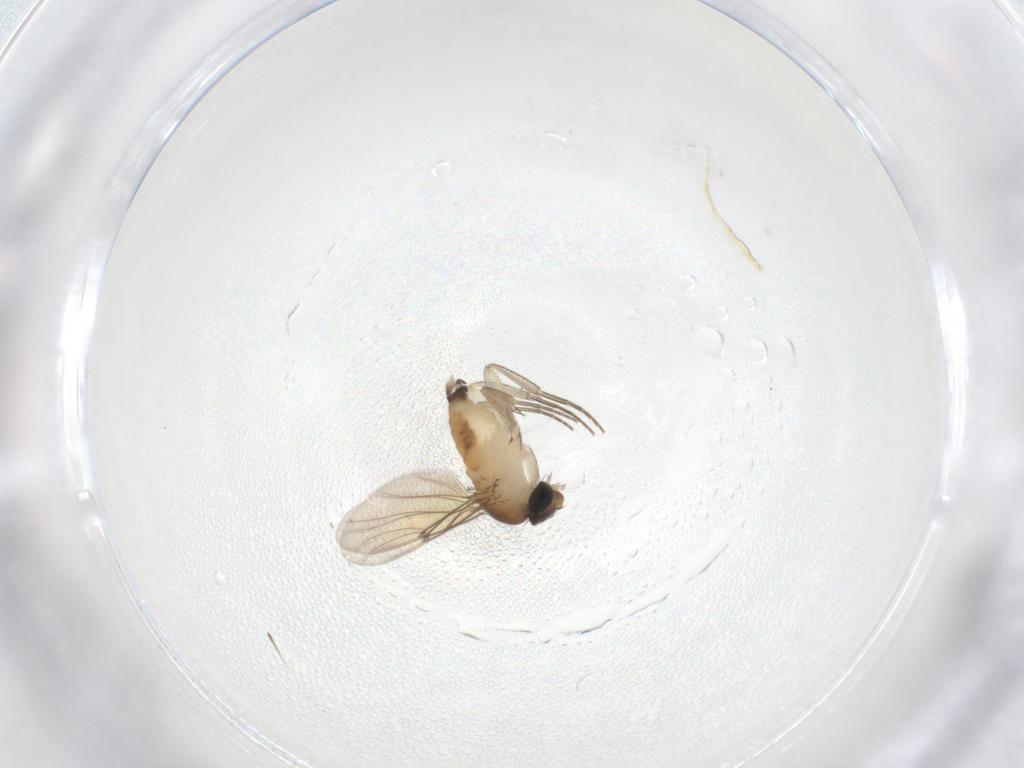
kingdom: Animalia
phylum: Arthropoda
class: Insecta
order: Diptera
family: Phoridae
